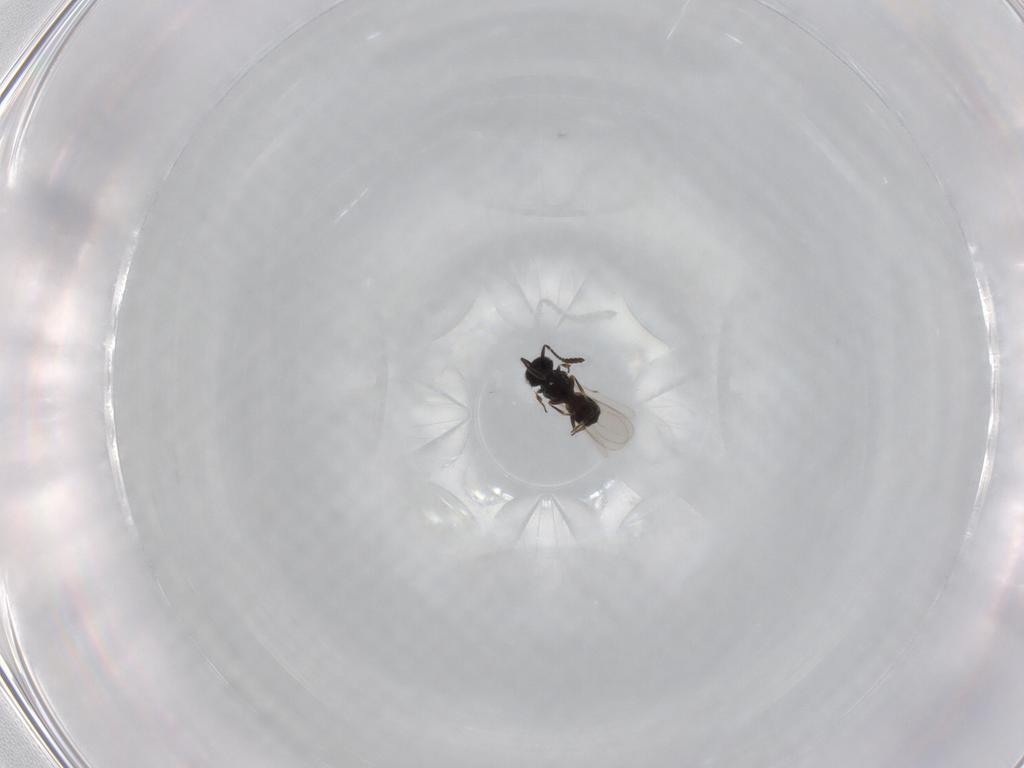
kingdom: Animalia
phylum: Arthropoda
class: Insecta
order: Hymenoptera
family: Scelionidae
